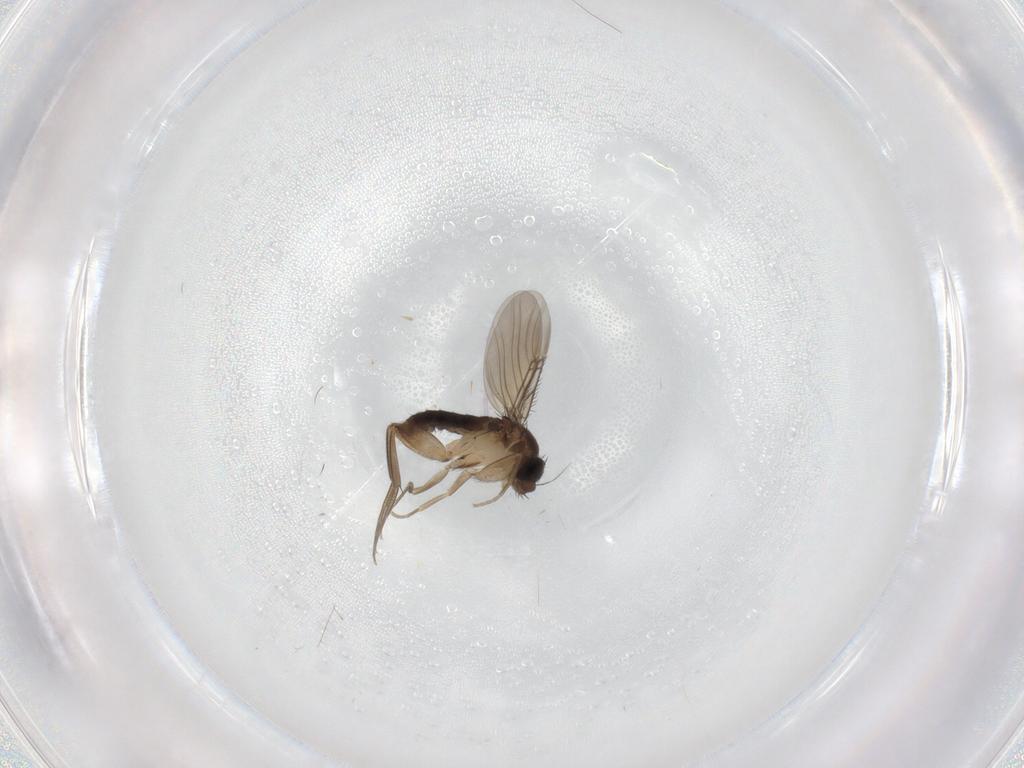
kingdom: Animalia
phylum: Arthropoda
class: Insecta
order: Diptera
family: Phoridae
